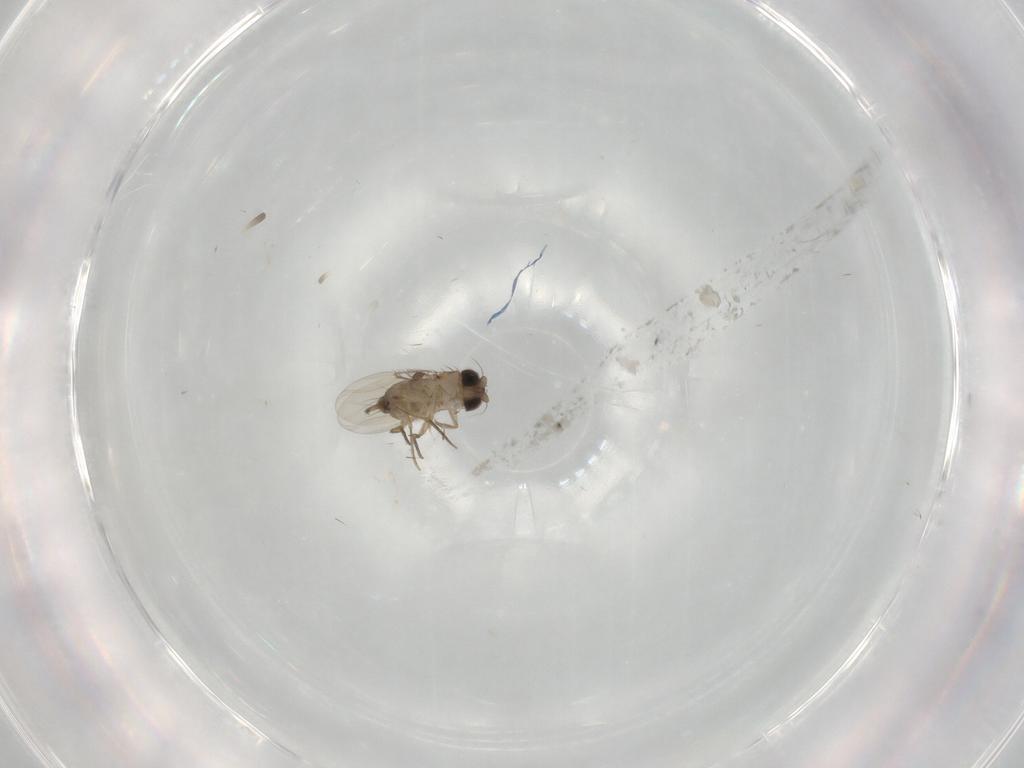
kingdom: Animalia
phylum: Arthropoda
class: Insecta
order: Diptera
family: Phoridae
